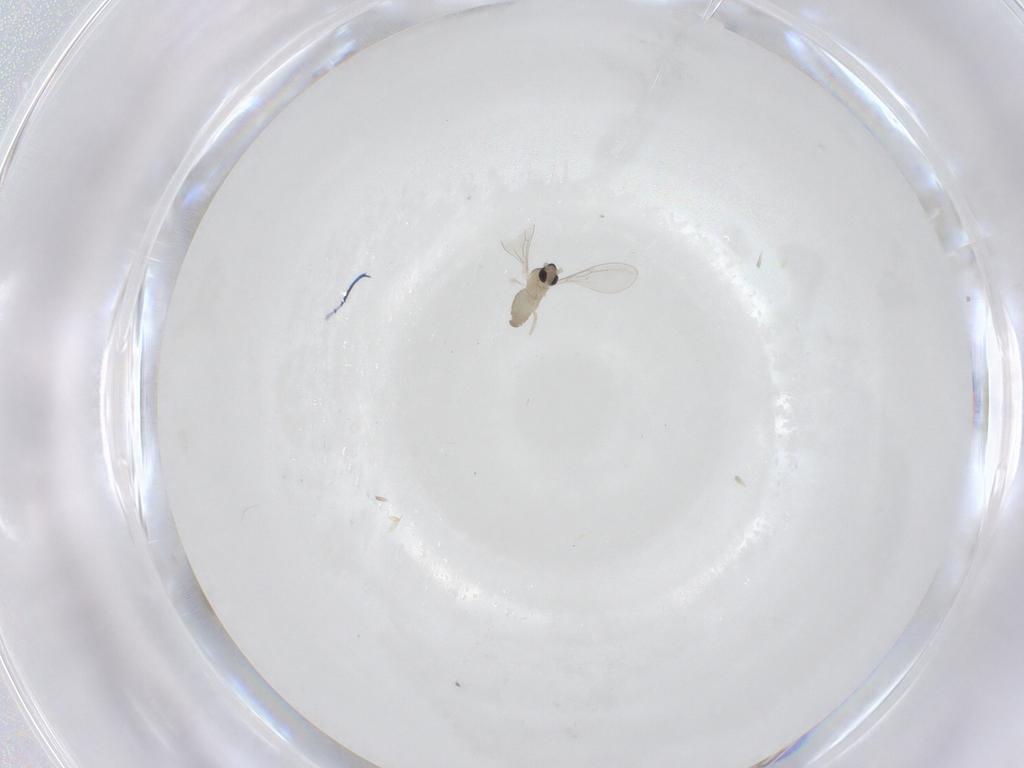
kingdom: Animalia
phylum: Arthropoda
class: Insecta
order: Diptera
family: Cecidomyiidae
